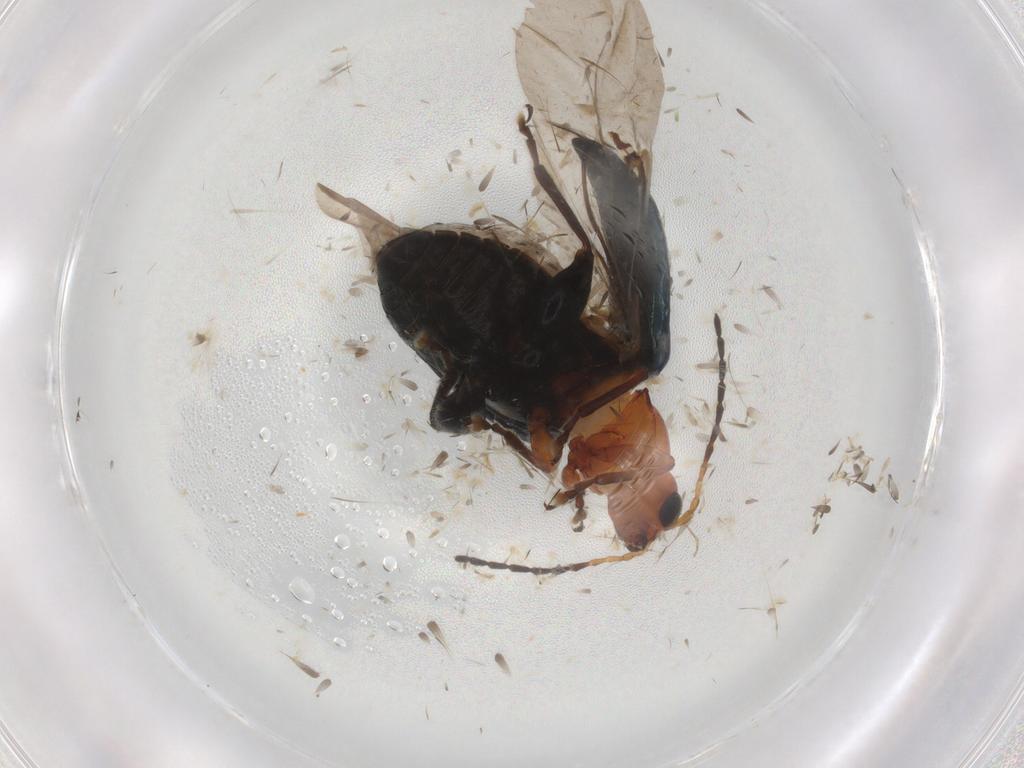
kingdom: Animalia
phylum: Arthropoda
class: Insecta
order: Coleoptera
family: Chrysomelidae
